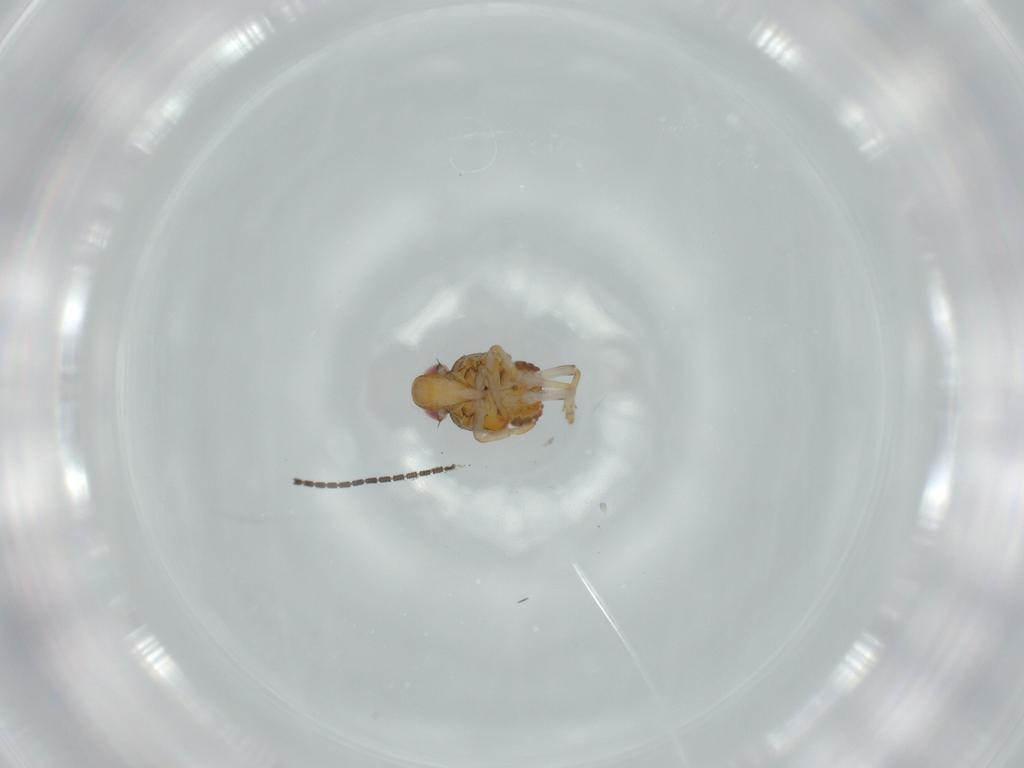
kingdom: Animalia
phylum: Arthropoda
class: Insecta
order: Hemiptera
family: Issidae
